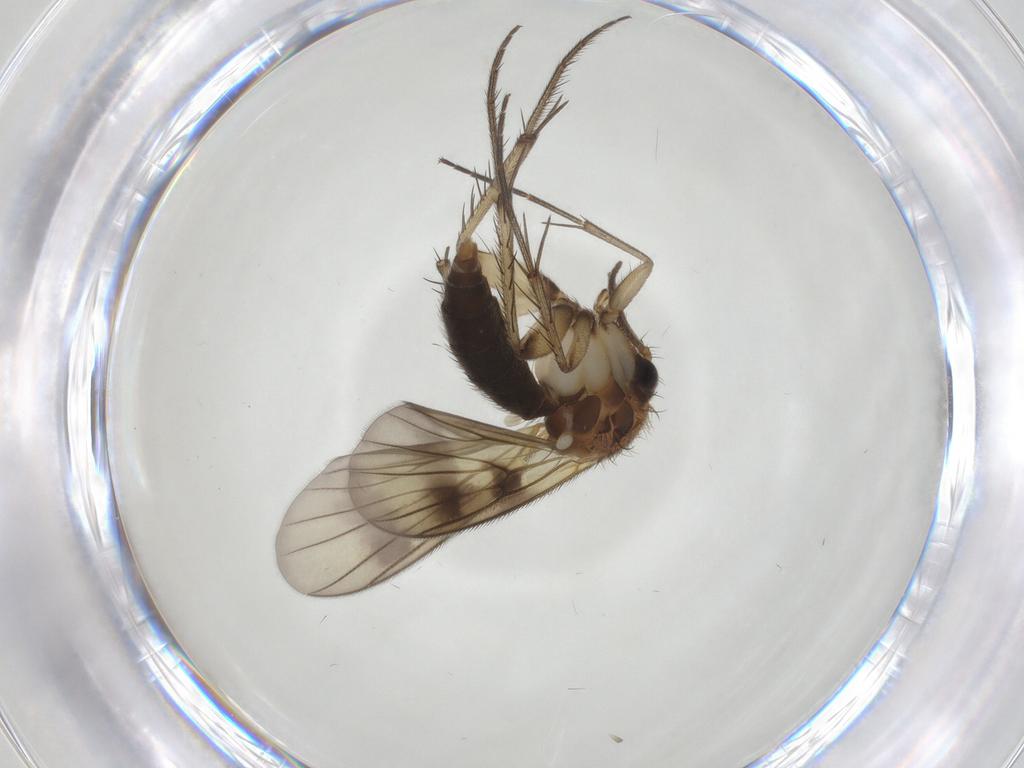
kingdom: Animalia
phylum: Arthropoda
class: Insecta
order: Diptera
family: Mycetophilidae
